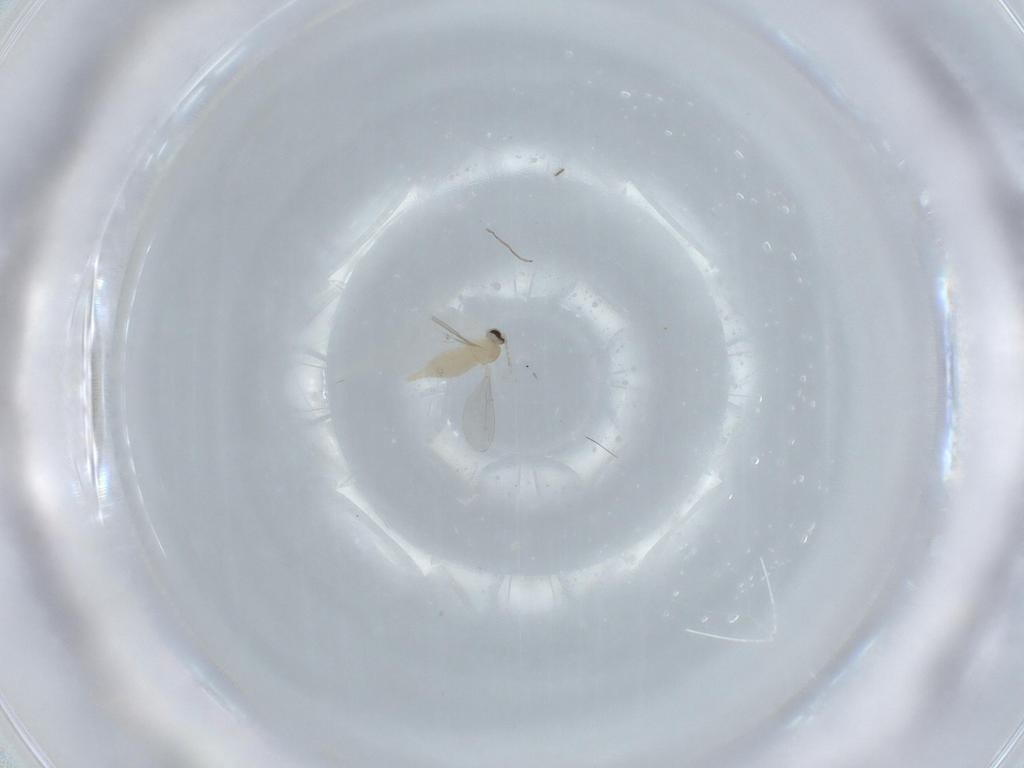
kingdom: Animalia
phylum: Arthropoda
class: Insecta
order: Diptera
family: Cecidomyiidae
